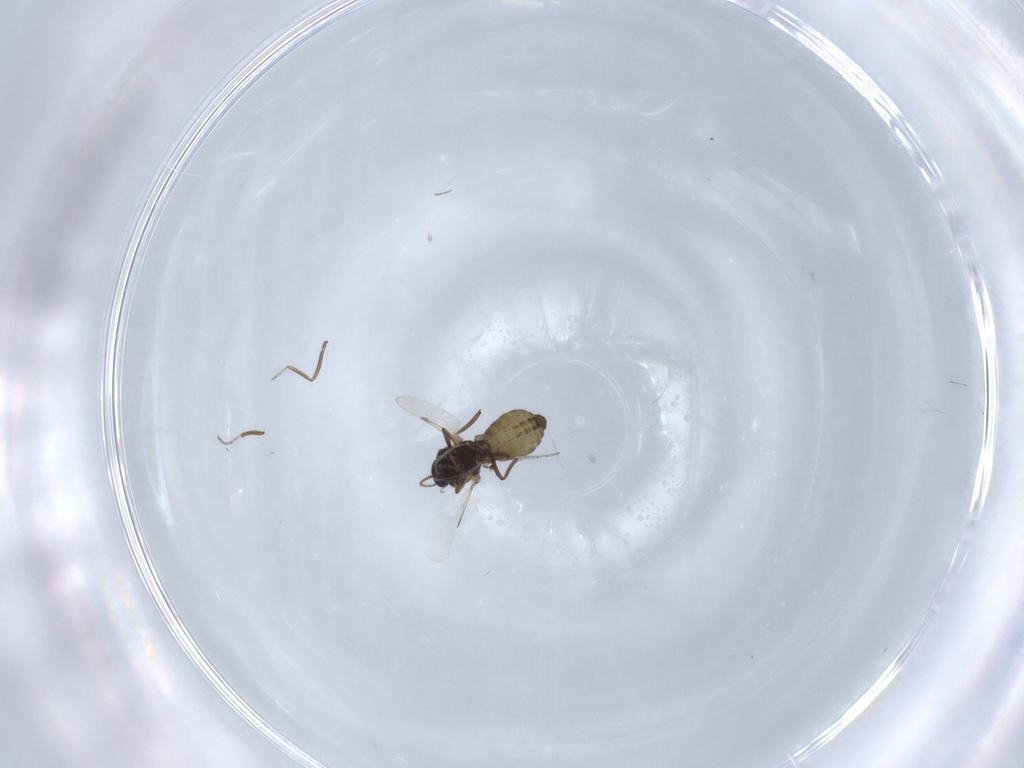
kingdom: Animalia
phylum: Arthropoda
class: Insecta
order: Diptera
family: Ceratopogonidae
